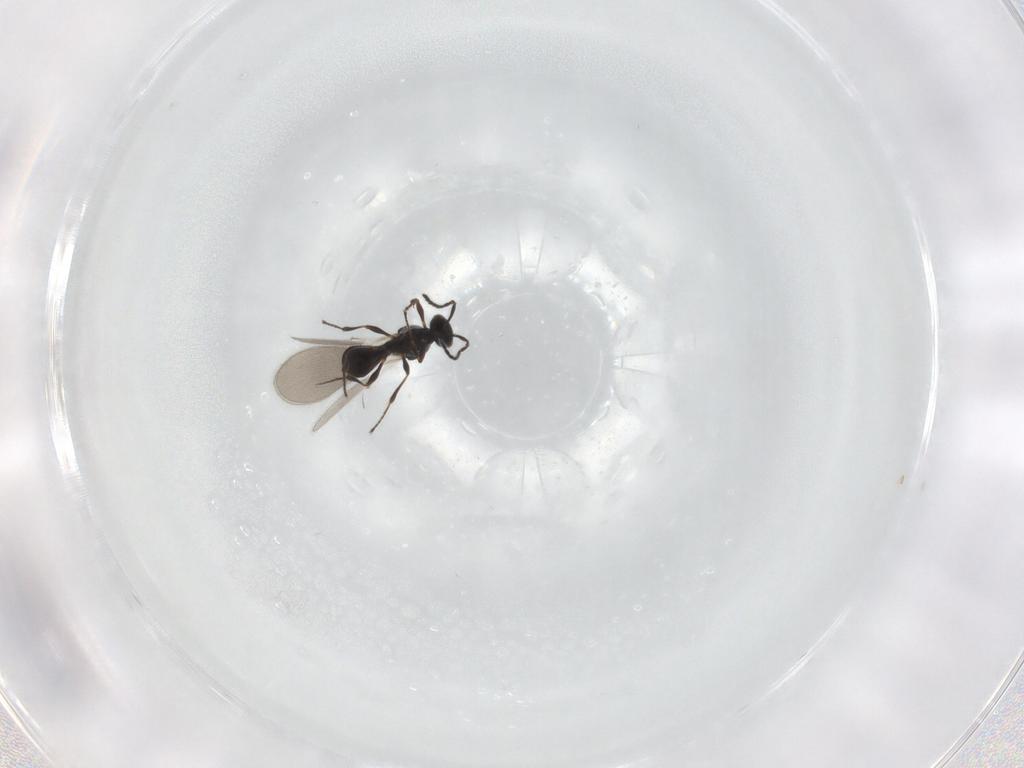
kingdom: Animalia
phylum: Arthropoda
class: Insecta
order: Hymenoptera
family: Platygastridae
